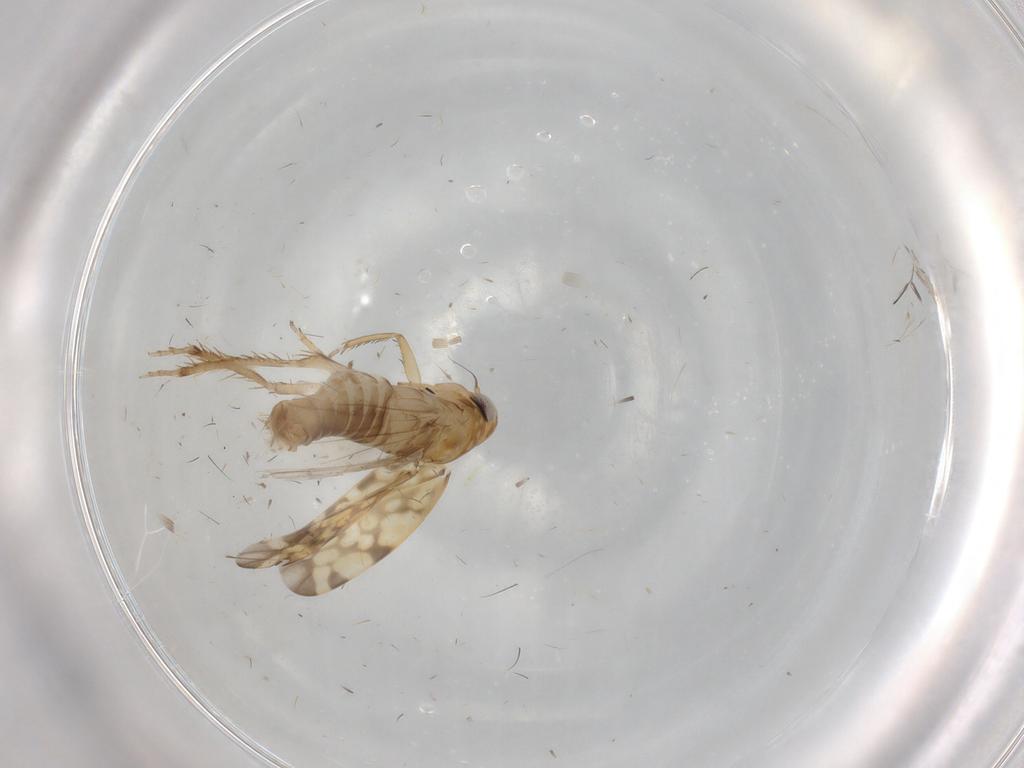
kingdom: Animalia
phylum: Arthropoda
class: Insecta
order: Hemiptera
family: Cicadellidae
